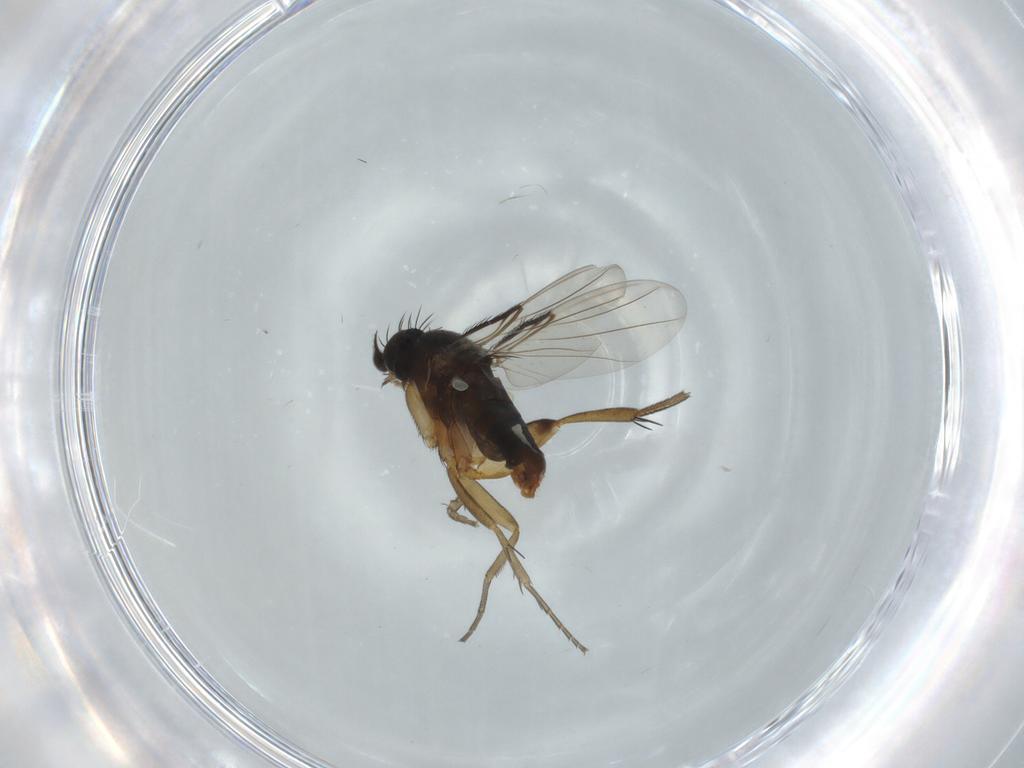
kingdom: Animalia
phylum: Arthropoda
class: Insecta
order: Diptera
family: Phoridae
